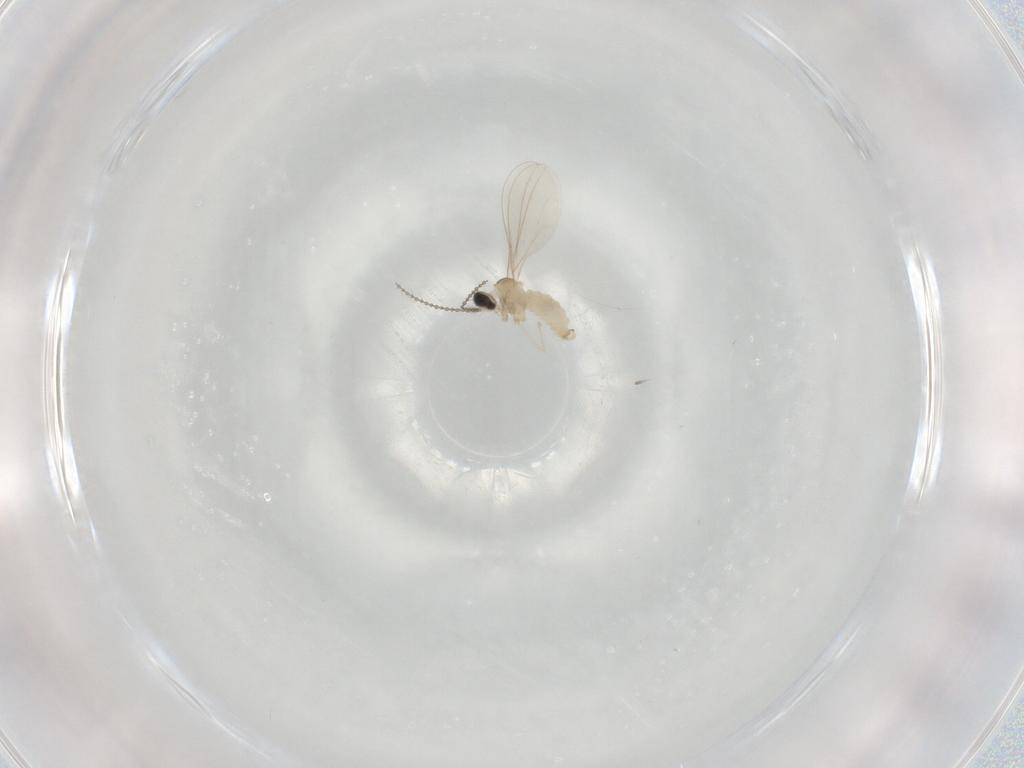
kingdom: Animalia
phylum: Arthropoda
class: Insecta
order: Diptera
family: Cecidomyiidae
